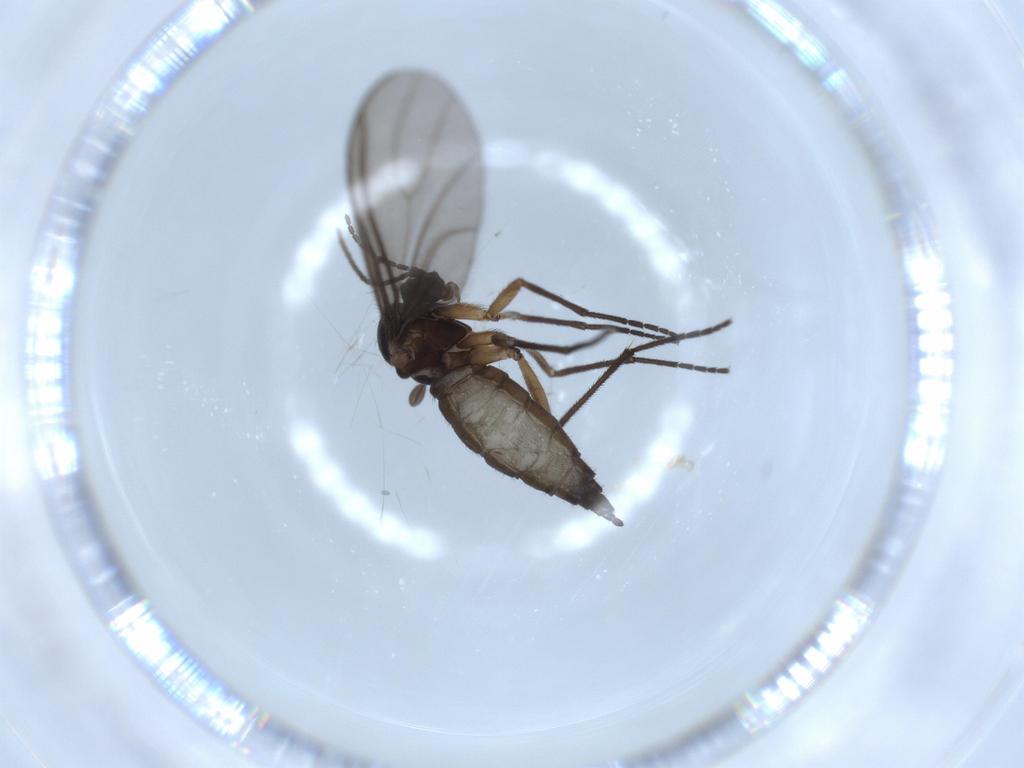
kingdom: Animalia
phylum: Arthropoda
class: Insecta
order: Diptera
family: Sciaridae
